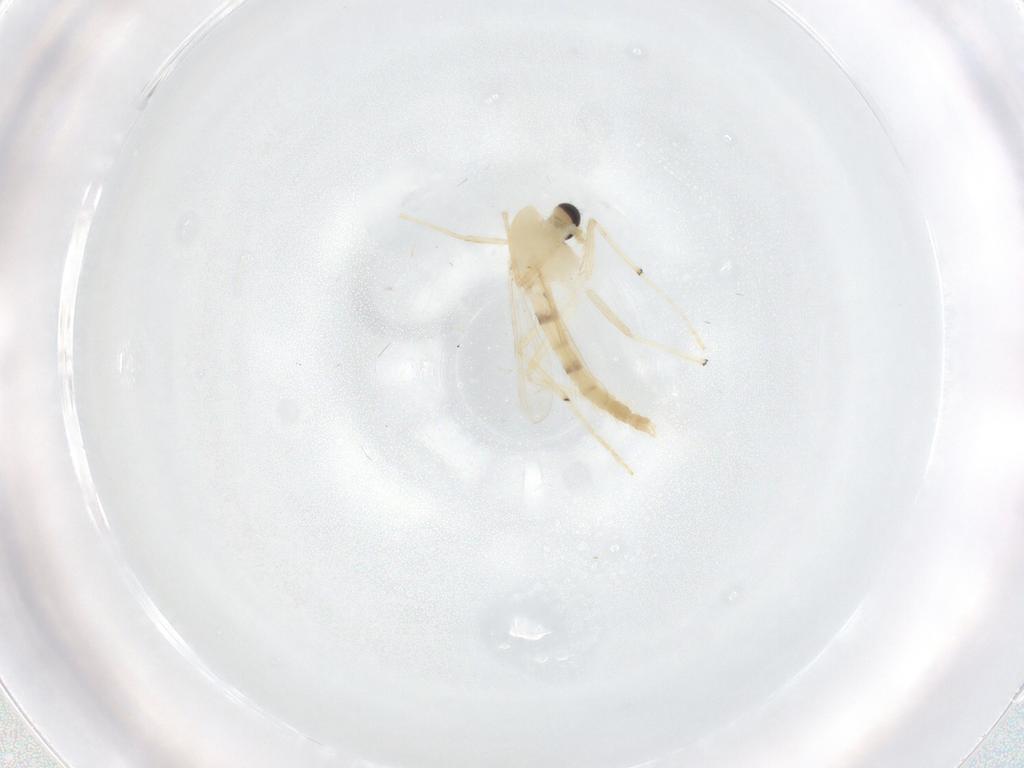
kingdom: Animalia
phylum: Arthropoda
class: Insecta
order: Diptera
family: Chironomidae
